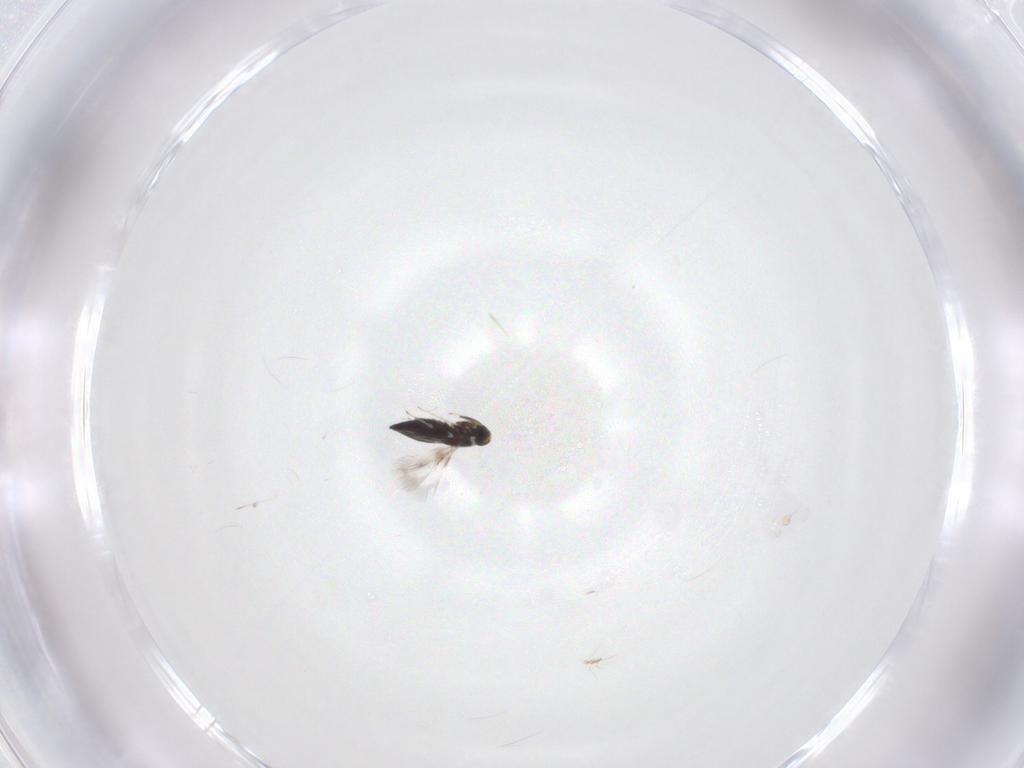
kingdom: Animalia
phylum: Arthropoda
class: Insecta
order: Hymenoptera
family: Signiphoridae
